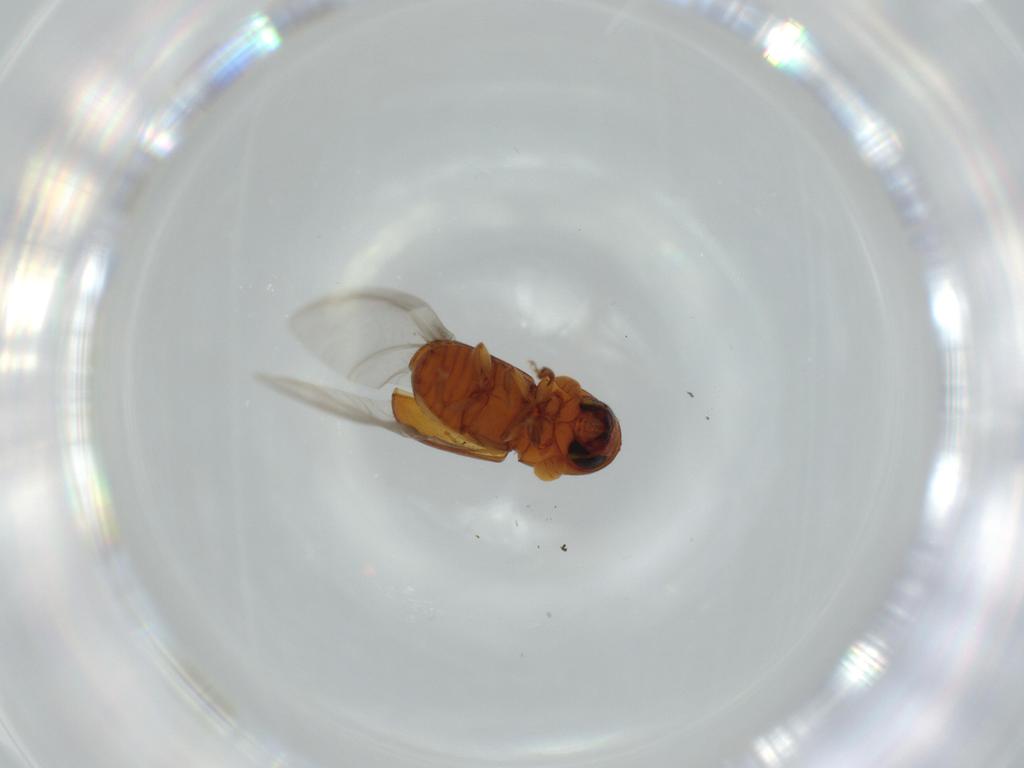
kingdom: Animalia
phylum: Arthropoda
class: Insecta
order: Coleoptera
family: Curculionidae
